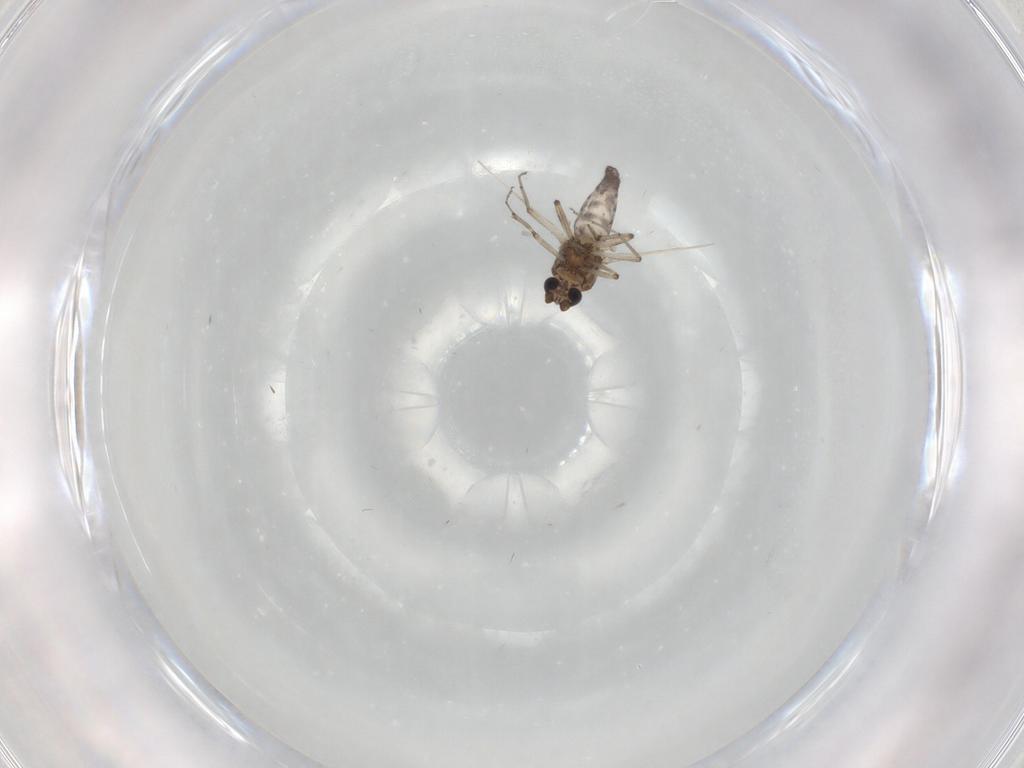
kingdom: Animalia
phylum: Arthropoda
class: Insecta
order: Diptera
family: Ceratopogonidae
